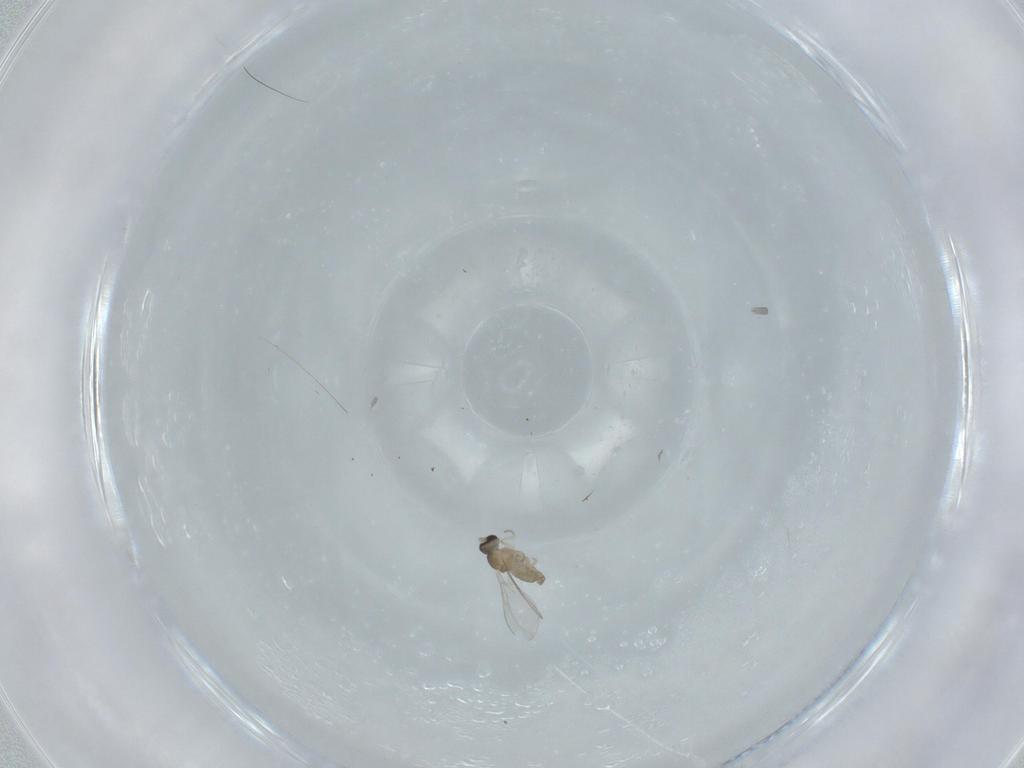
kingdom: Animalia
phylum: Arthropoda
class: Insecta
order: Diptera
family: Cecidomyiidae
